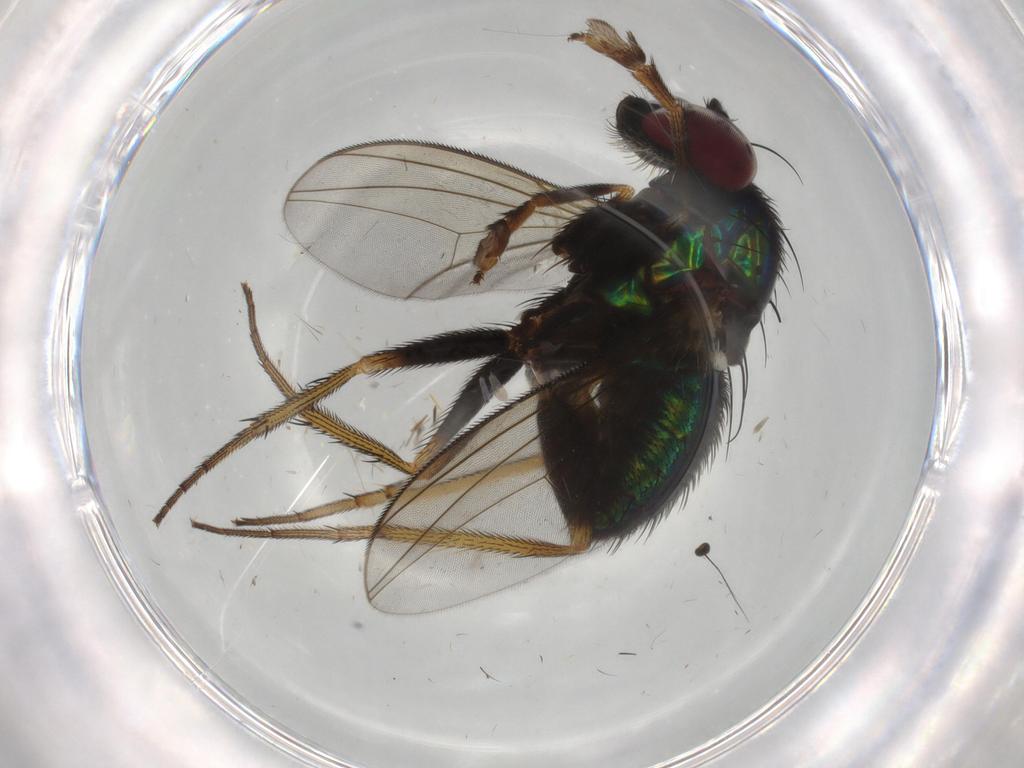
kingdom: Animalia
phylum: Arthropoda
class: Insecta
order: Diptera
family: Dolichopodidae
